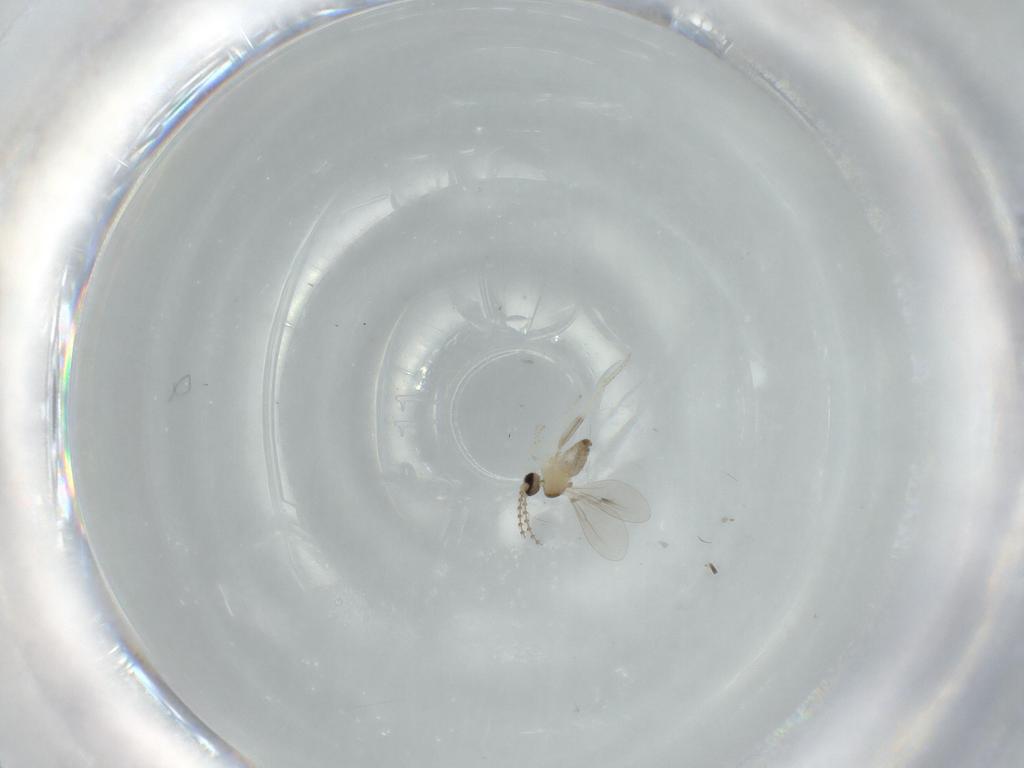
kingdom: Animalia
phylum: Arthropoda
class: Insecta
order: Diptera
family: Cecidomyiidae
